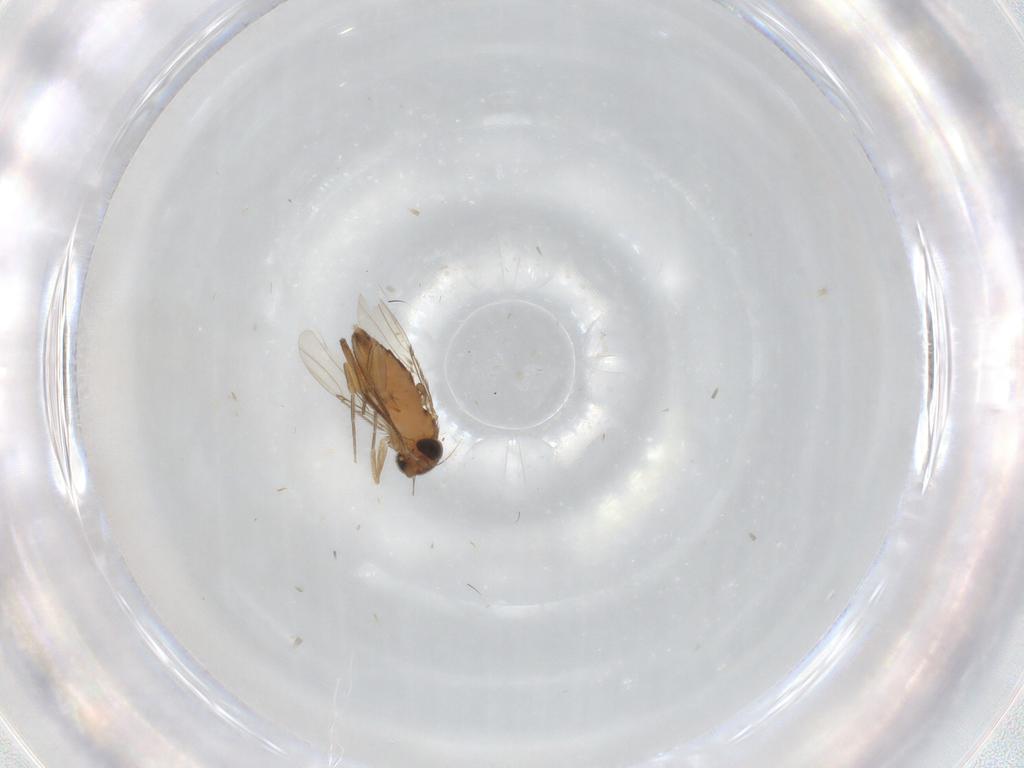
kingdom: Animalia
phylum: Arthropoda
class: Insecta
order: Diptera
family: Phoridae
